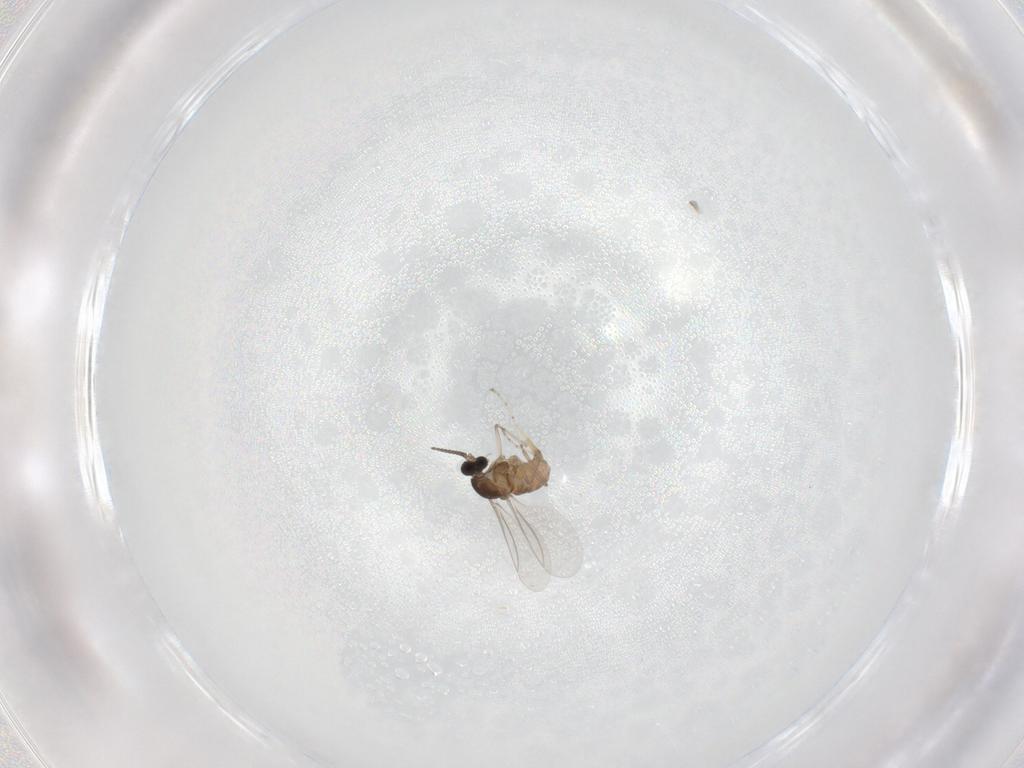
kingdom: Animalia
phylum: Arthropoda
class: Insecta
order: Diptera
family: Cecidomyiidae
